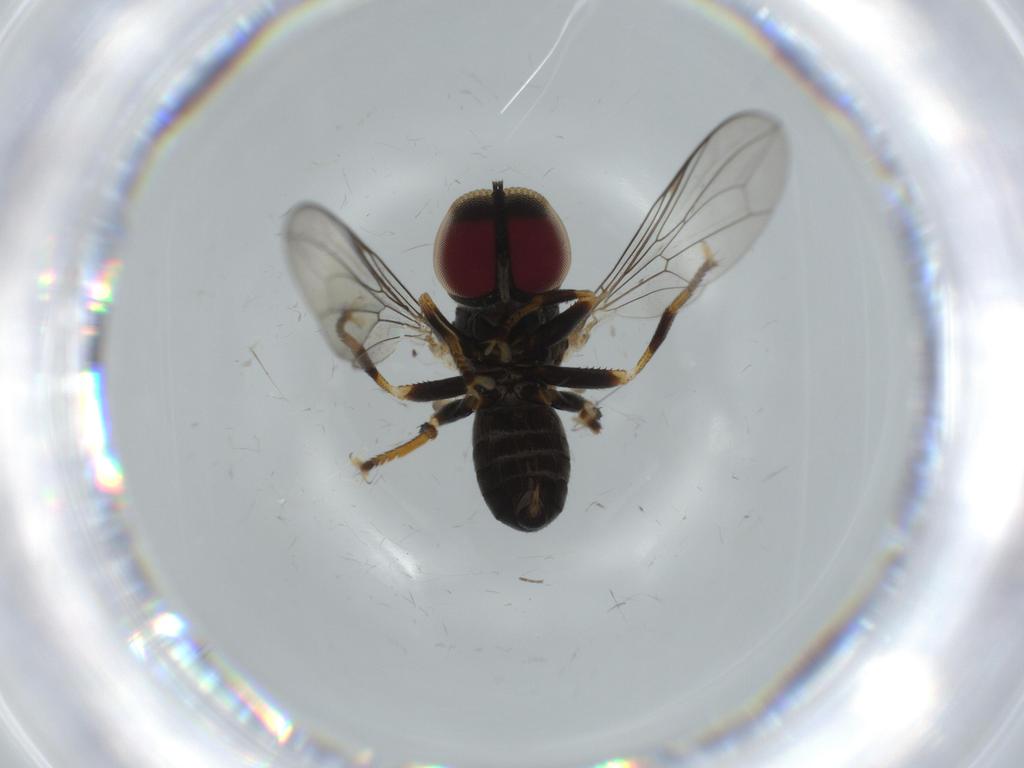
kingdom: Animalia
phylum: Arthropoda
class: Insecta
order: Diptera
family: Pipunculidae
